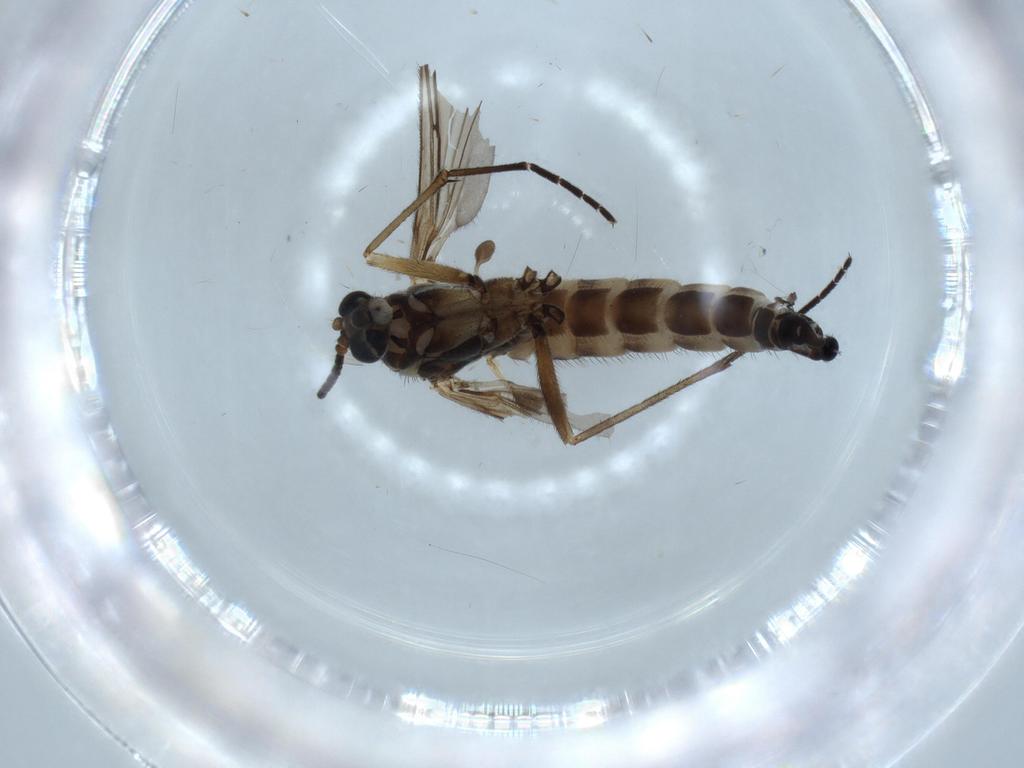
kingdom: Animalia
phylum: Arthropoda
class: Insecta
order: Diptera
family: Sciaridae
